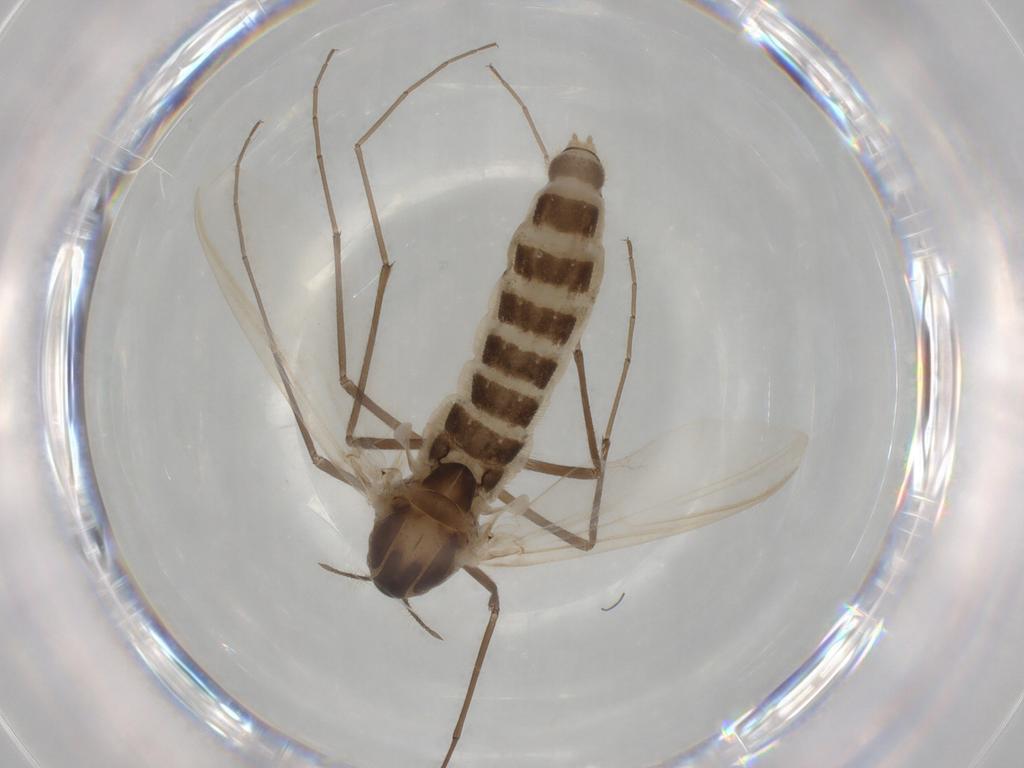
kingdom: Animalia
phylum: Arthropoda
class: Insecta
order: Diptera
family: Chironomidae
